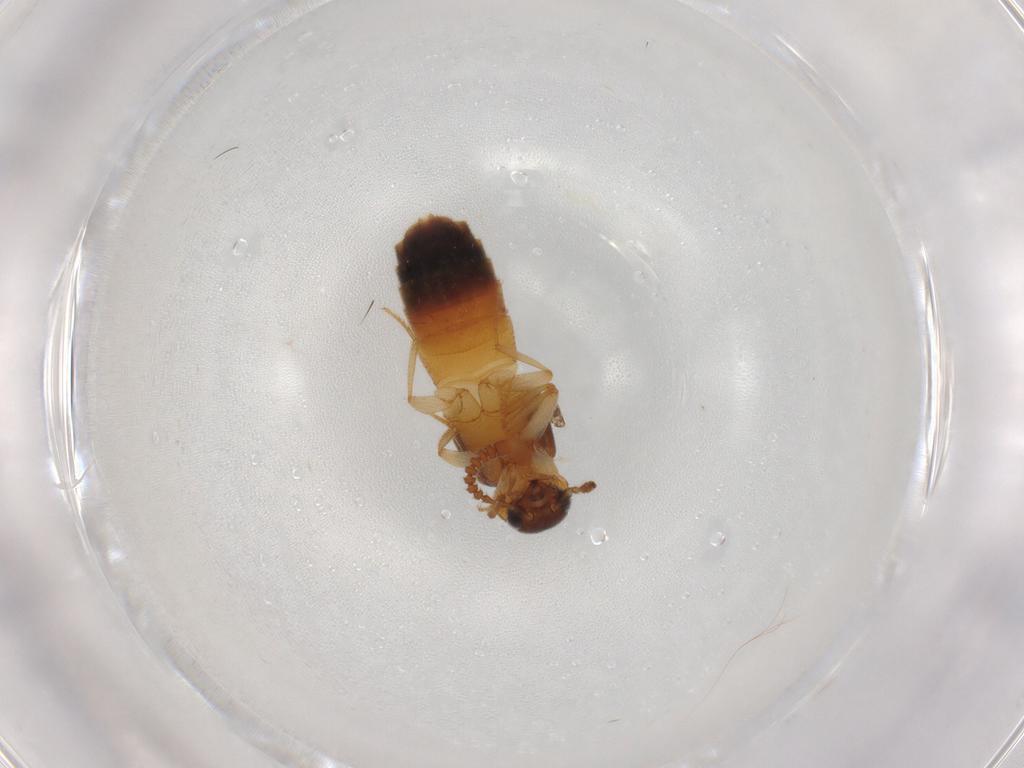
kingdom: Animalia
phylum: Arthropoda
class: Insecta
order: Coleoptera
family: Staphylinidae
